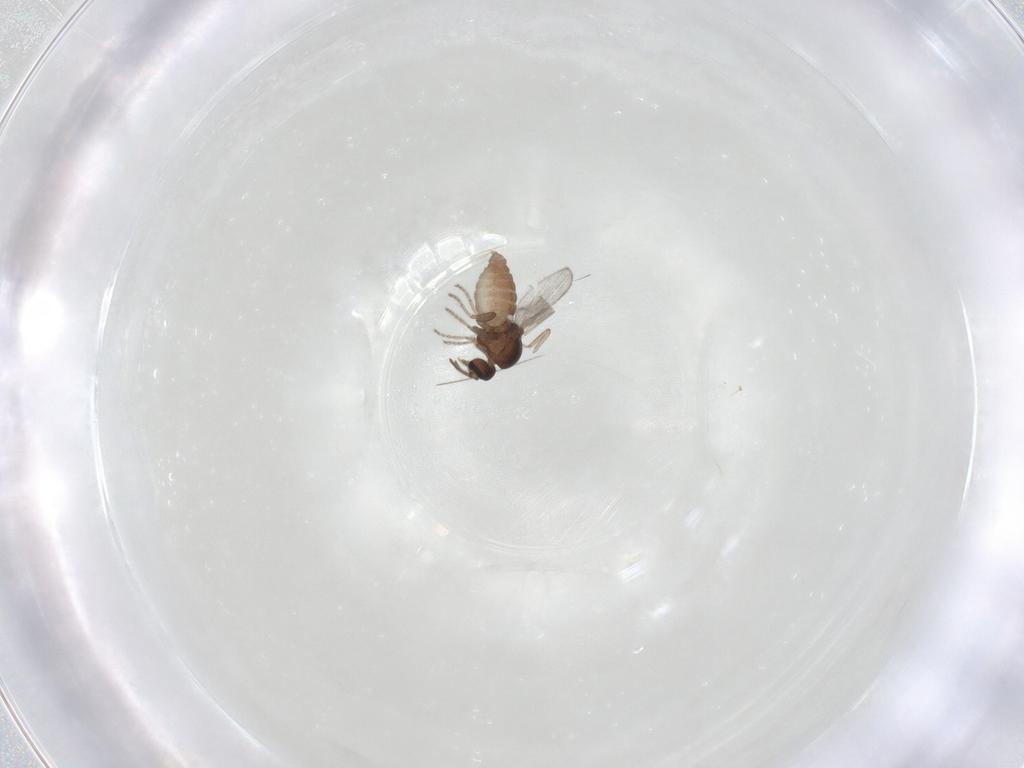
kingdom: Animalia
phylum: Arthropoda
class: Insecta
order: Diptera
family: Ceratopogonidae
